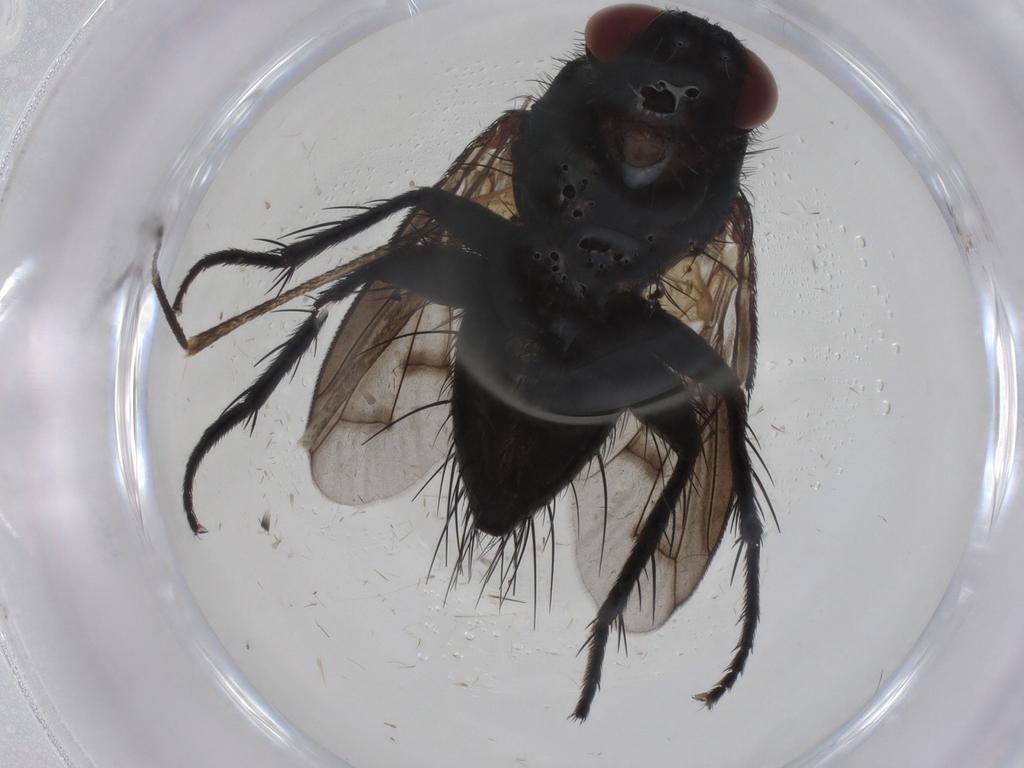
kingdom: Animalia
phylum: Arthropoda
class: Insecta
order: Diptera
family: Tachinidae
